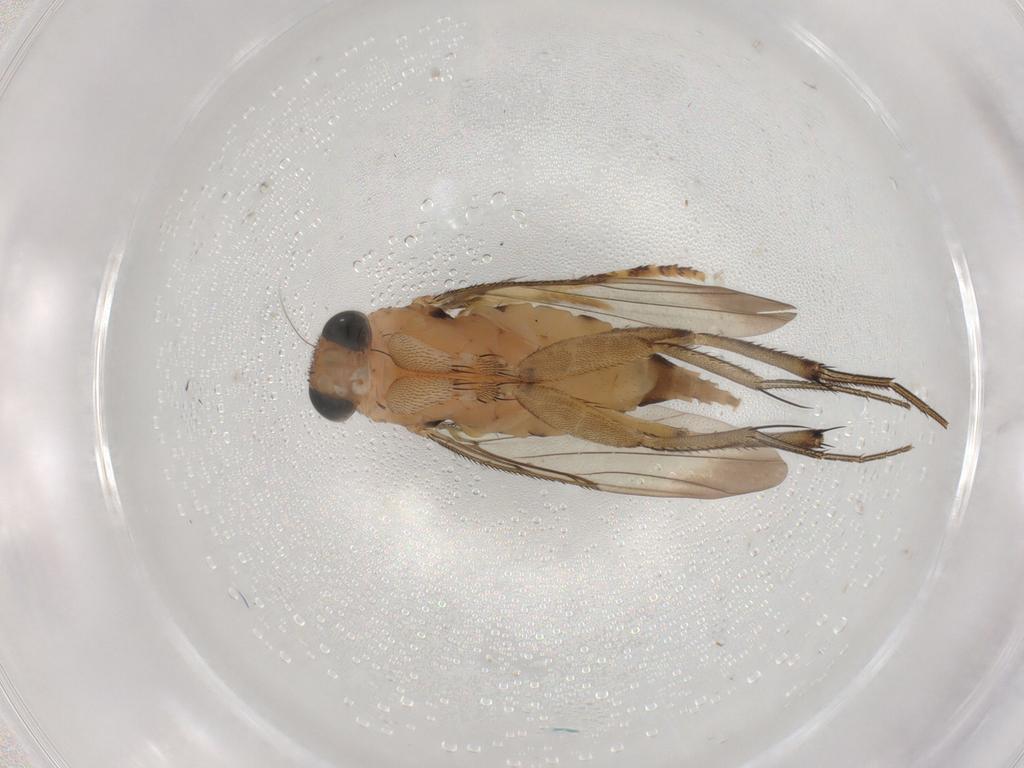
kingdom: Animalia
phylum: Arthropoda
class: Insecta
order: Diptera
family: Phoridae
